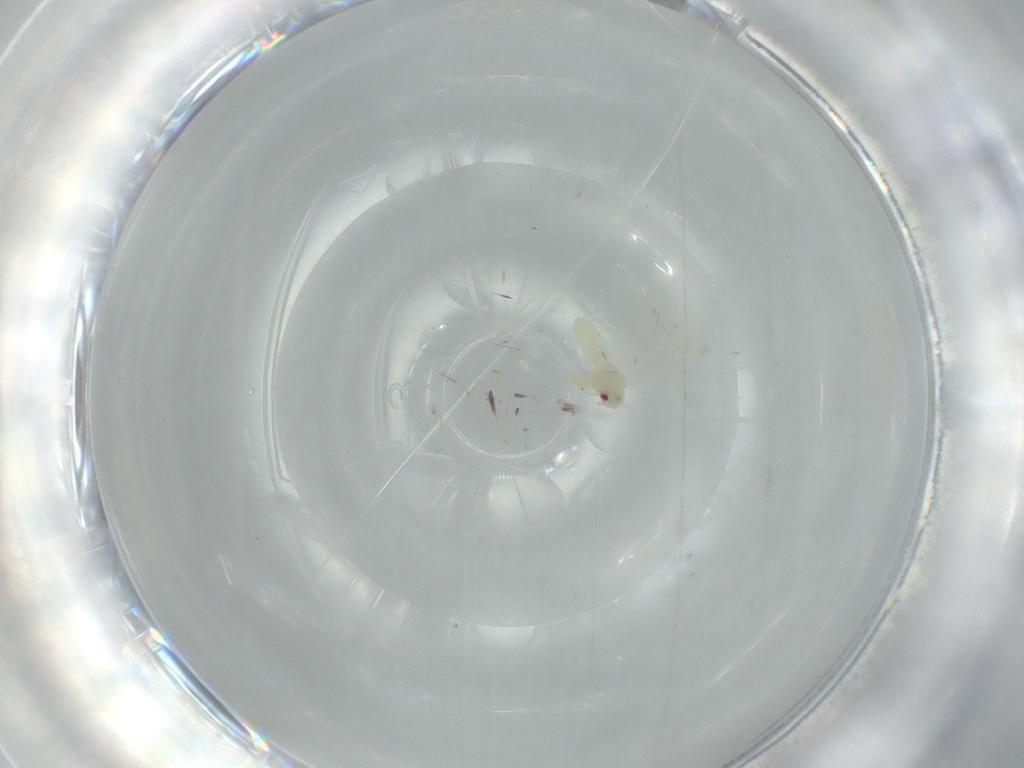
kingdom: Animalia
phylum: Arthropoda
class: Insecta
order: Hemiptera
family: Aleyrodidae
